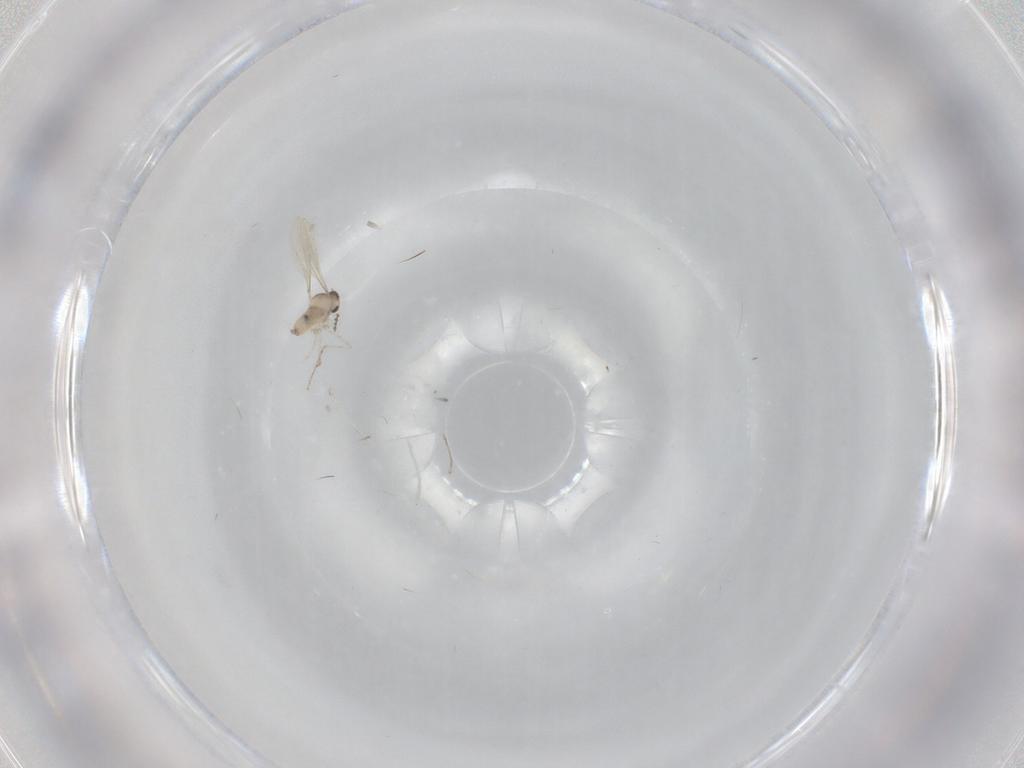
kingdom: Animalia
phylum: Arthropoda
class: Insecta
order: Diptera
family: Cecidomyiidae
